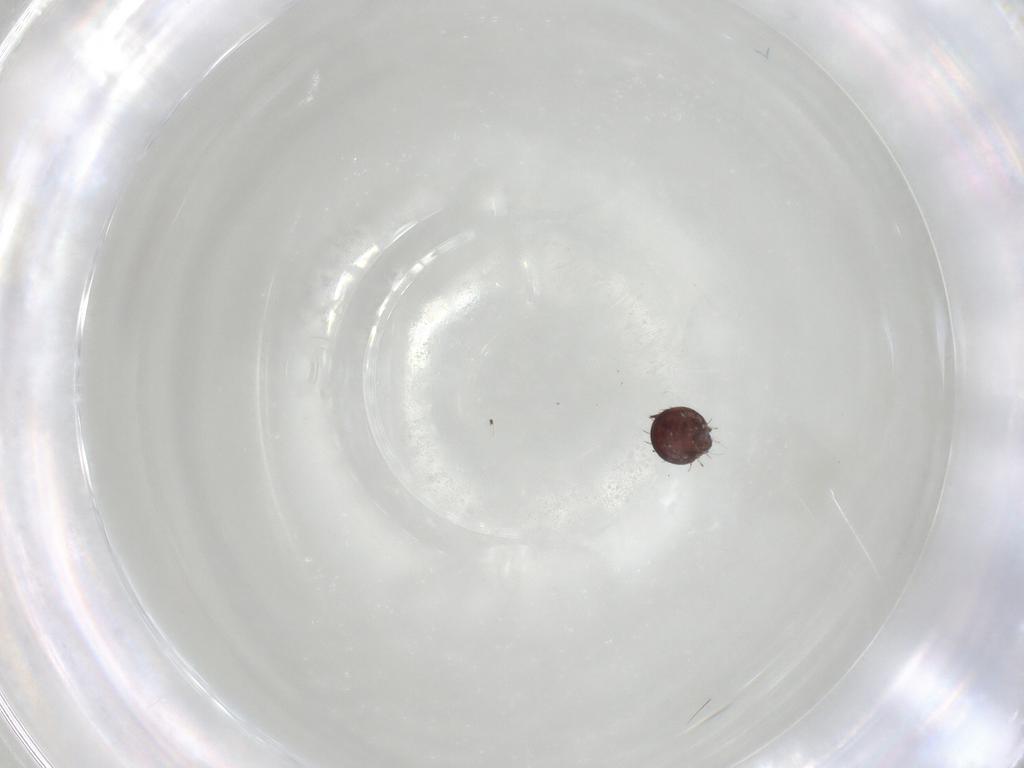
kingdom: Animalia
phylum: Arthropoda
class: Arachnida
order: Sarcoptiformes
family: Caloppiidae
